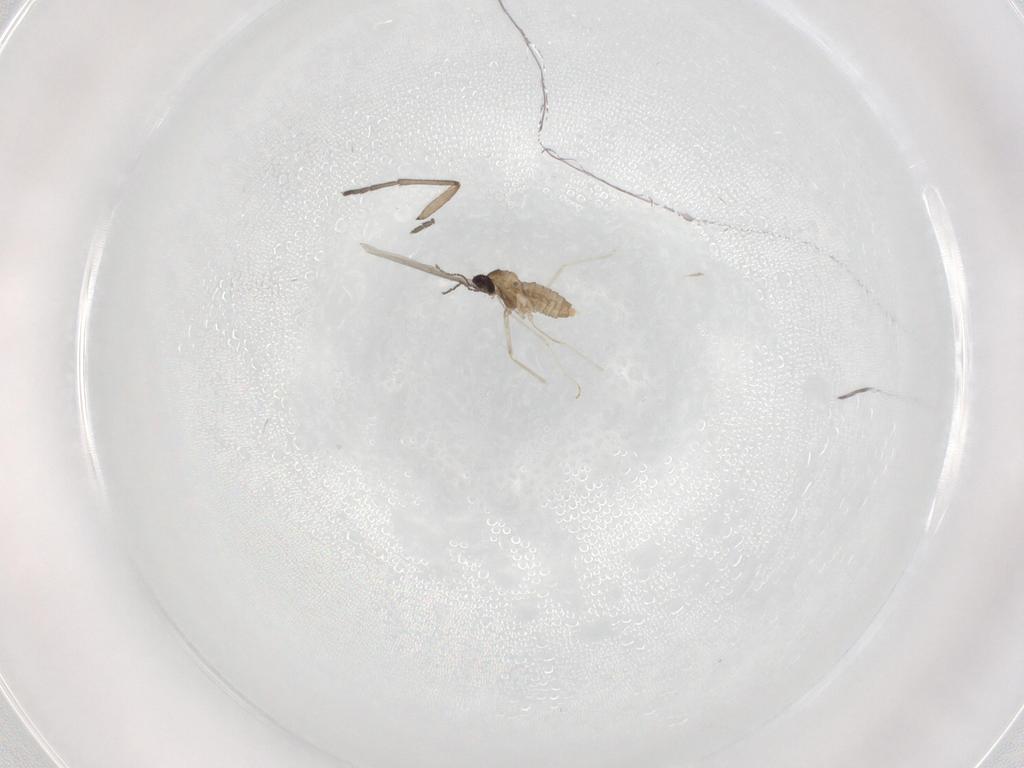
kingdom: Animalia
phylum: Arthropoda
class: Insecta
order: Diptera
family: Cecidomyiidae
